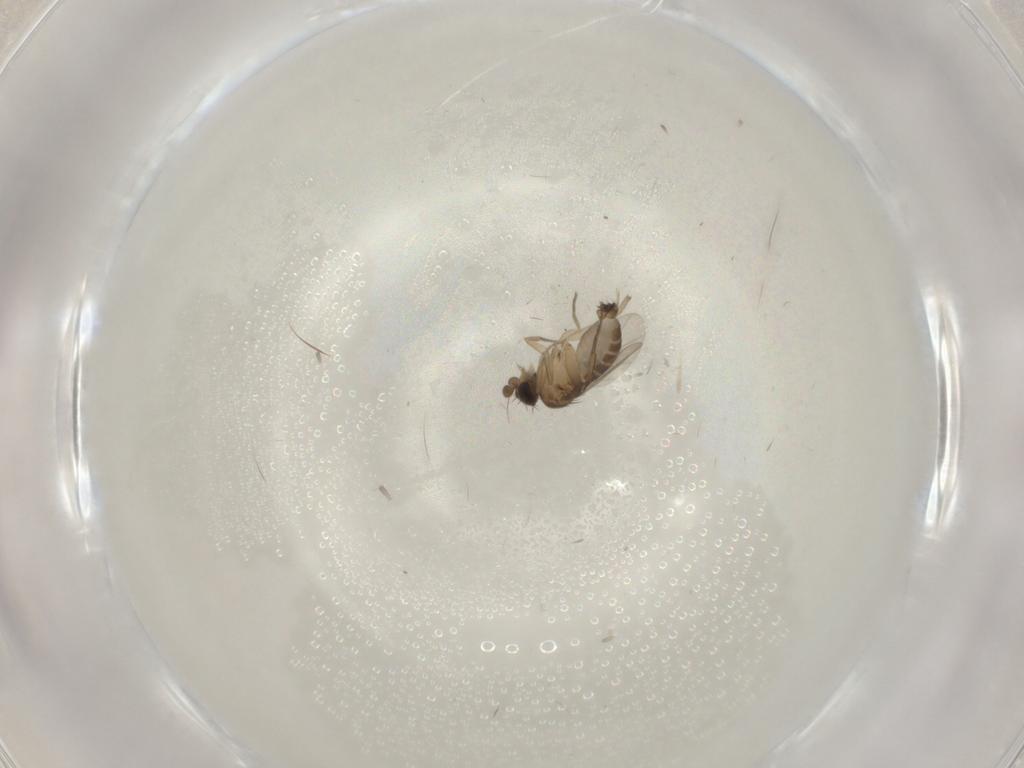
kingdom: Animalia
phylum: Arthropoda
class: Insecta
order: Diptera
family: Phoridae
